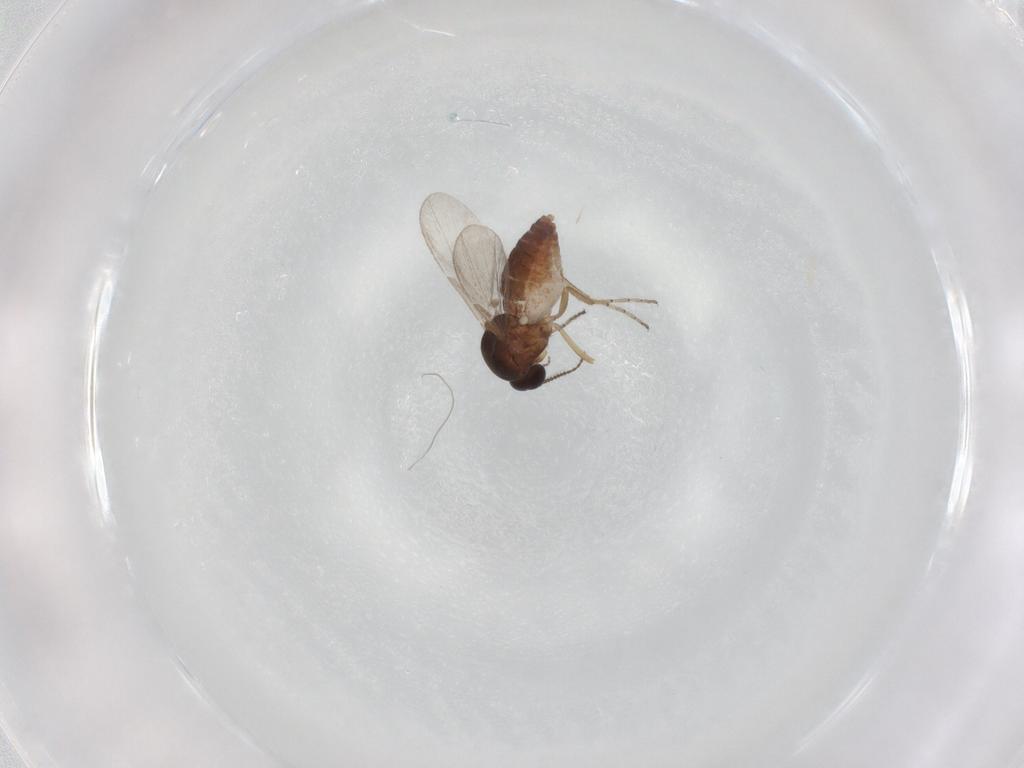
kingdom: Animalia
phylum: Arthropoda
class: Insecta
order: Diptera
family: Ceratopogonidae
